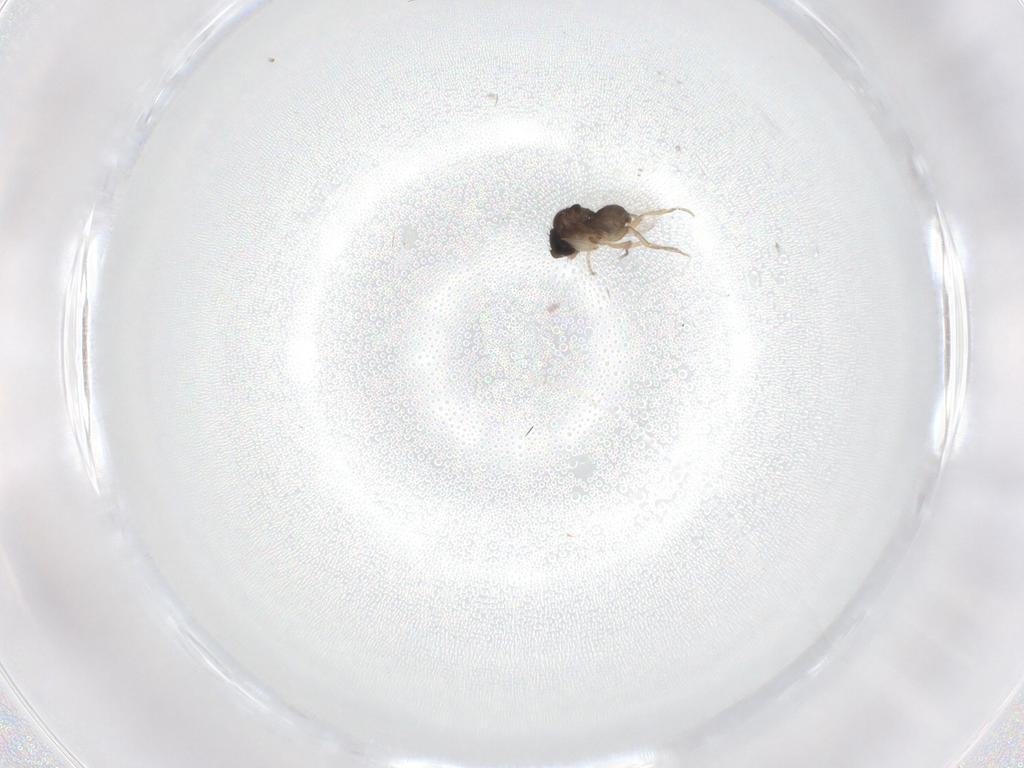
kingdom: Animalia
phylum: Arthropoda
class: Insecta
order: Diptera
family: Phoridae
